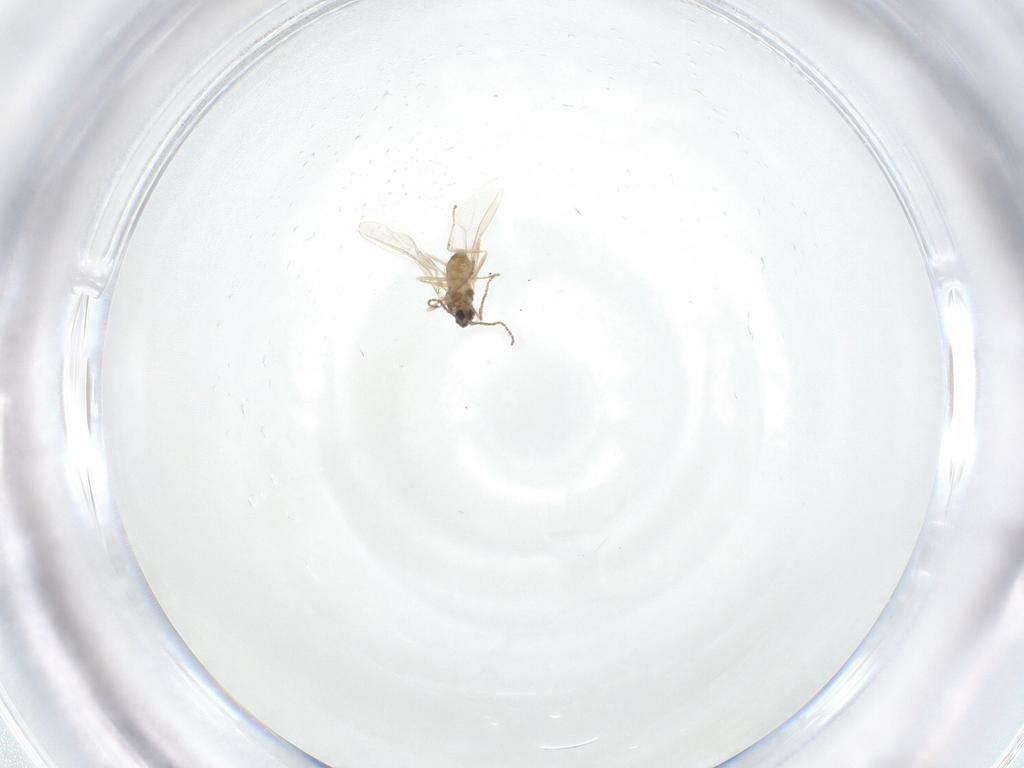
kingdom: Animalia
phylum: Arthropoda
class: Insecta
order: Diptera
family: Cecidomyiidae
